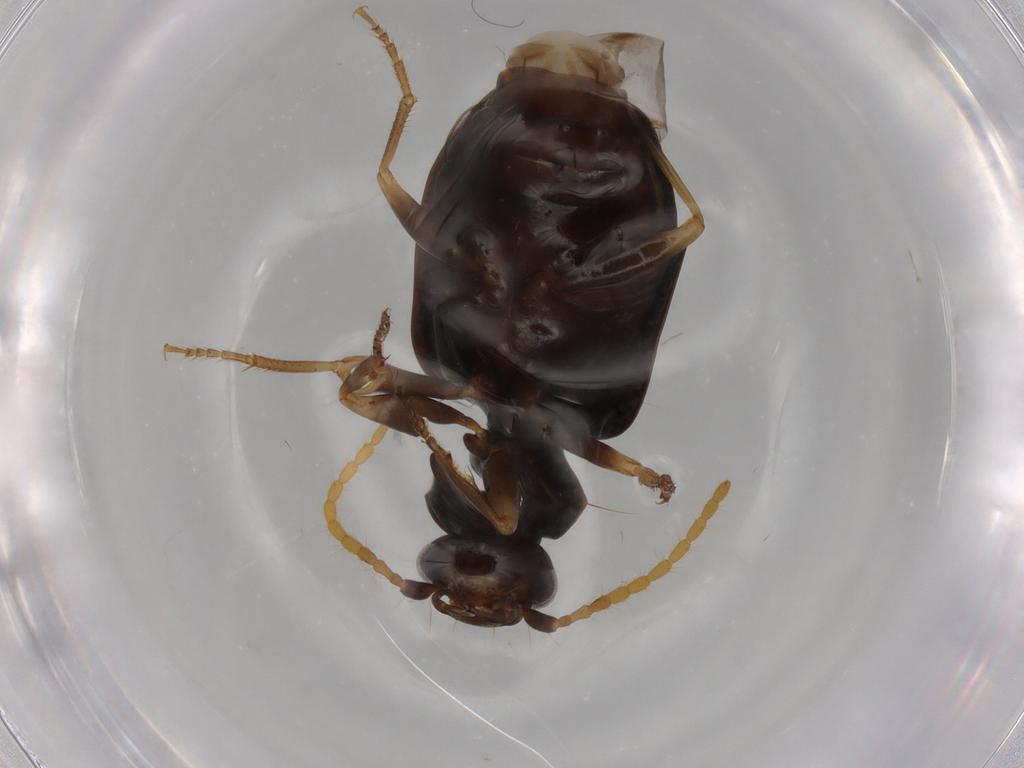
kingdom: Animalia
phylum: Arthropoda
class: Insecta
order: Coleoptera
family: Carabidae
